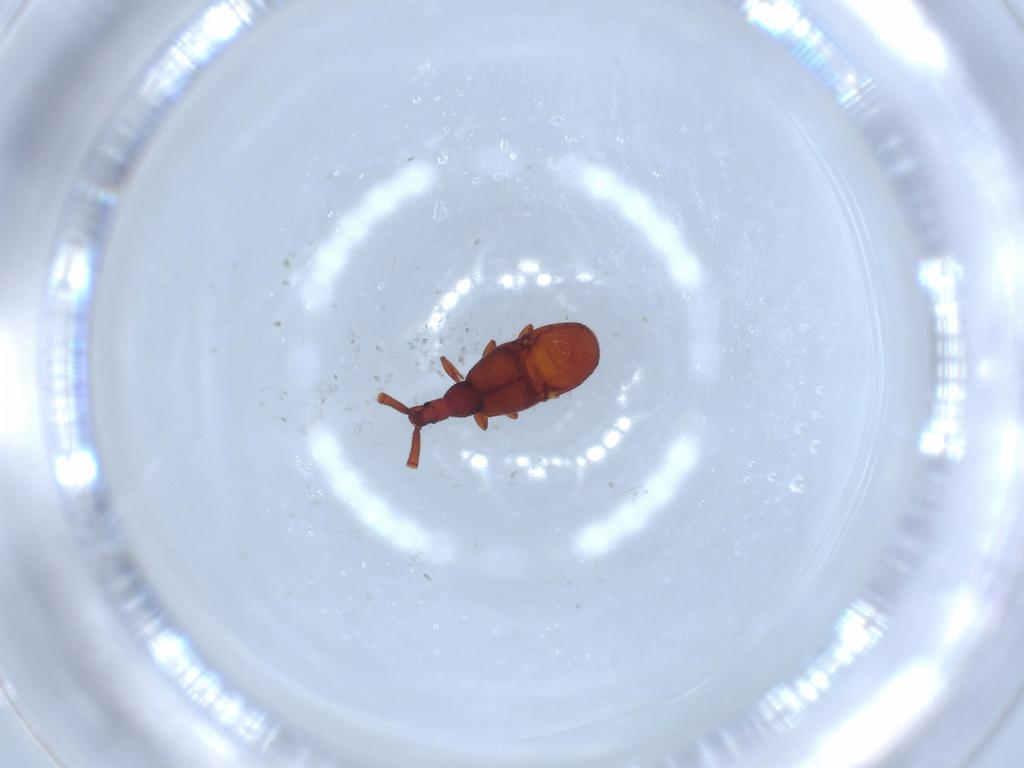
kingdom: Animalia
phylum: Arthropoda
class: Insecta
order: Coleoptera
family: Staphylinidae
